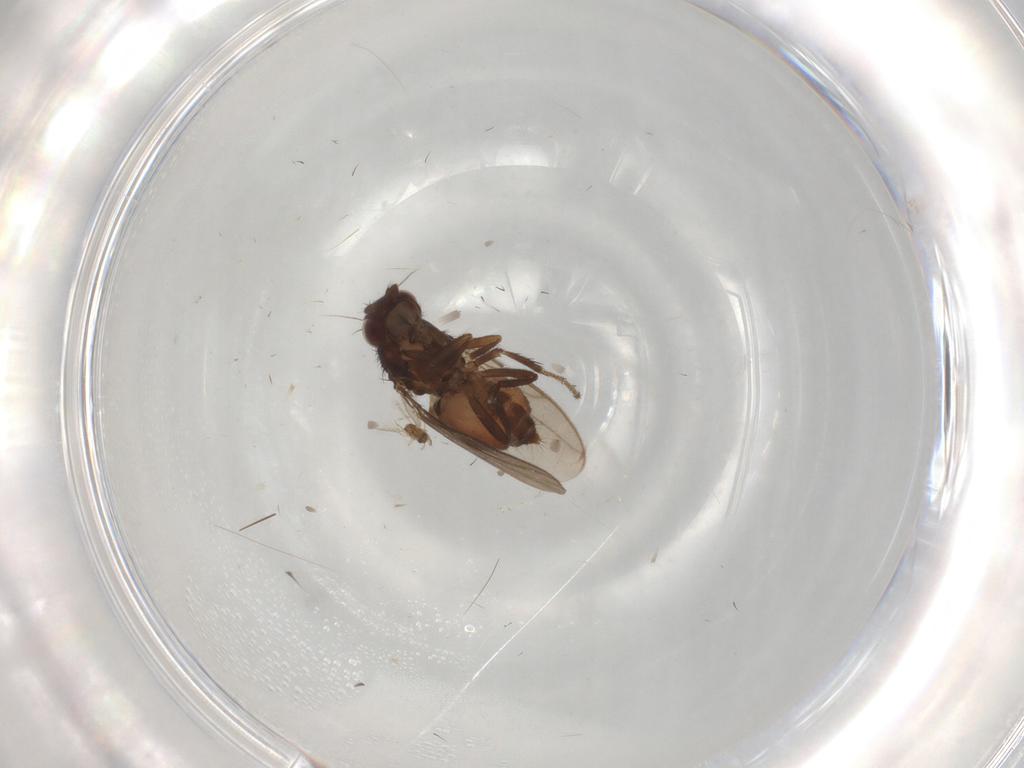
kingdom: Animalia
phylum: Arthropoda
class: Insecta
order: Diptera
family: Sphaeroceridae
